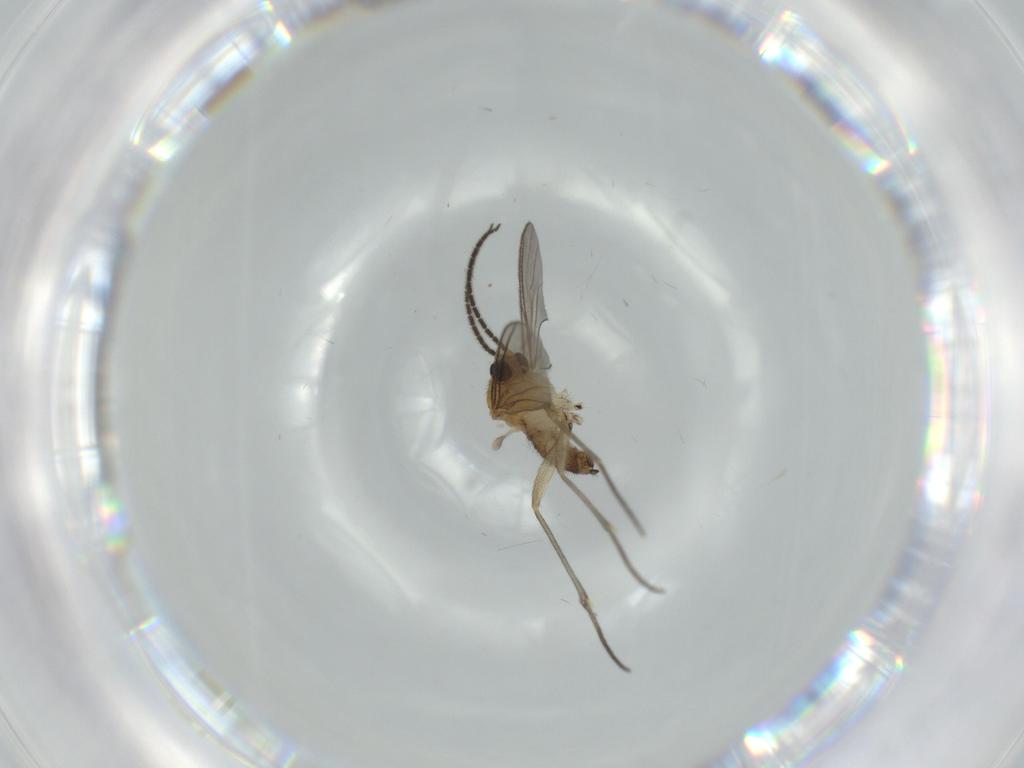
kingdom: Animalia
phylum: Arthropoda
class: Insecta
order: Diptera
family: Sciaridae
